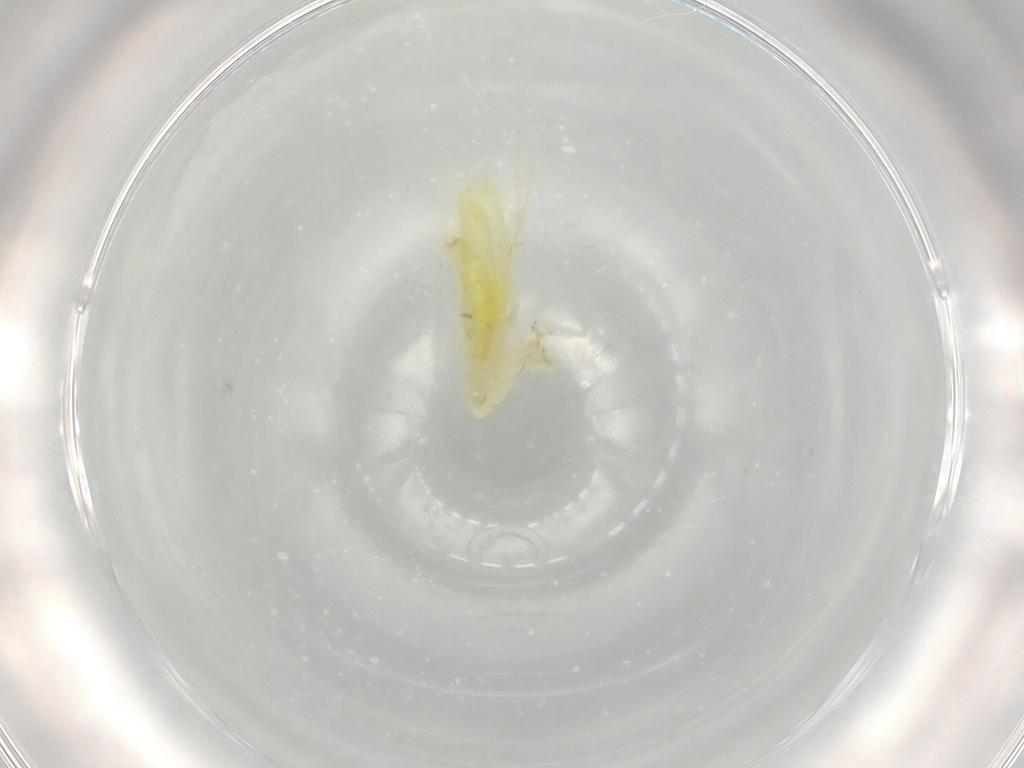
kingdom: Animalia
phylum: Arthropoda
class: Insecta
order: Hemiptera
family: Cicadellidae
